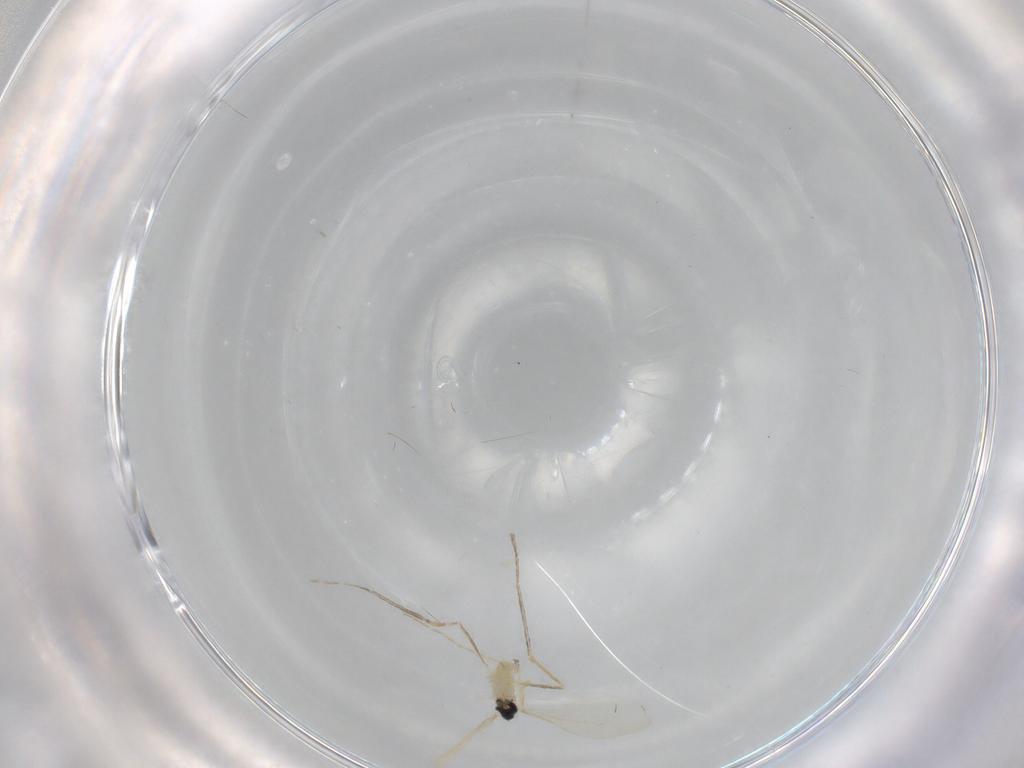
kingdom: Animalia
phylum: Arthropoda
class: Insecta
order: Diptera
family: Cecidomyiidae
